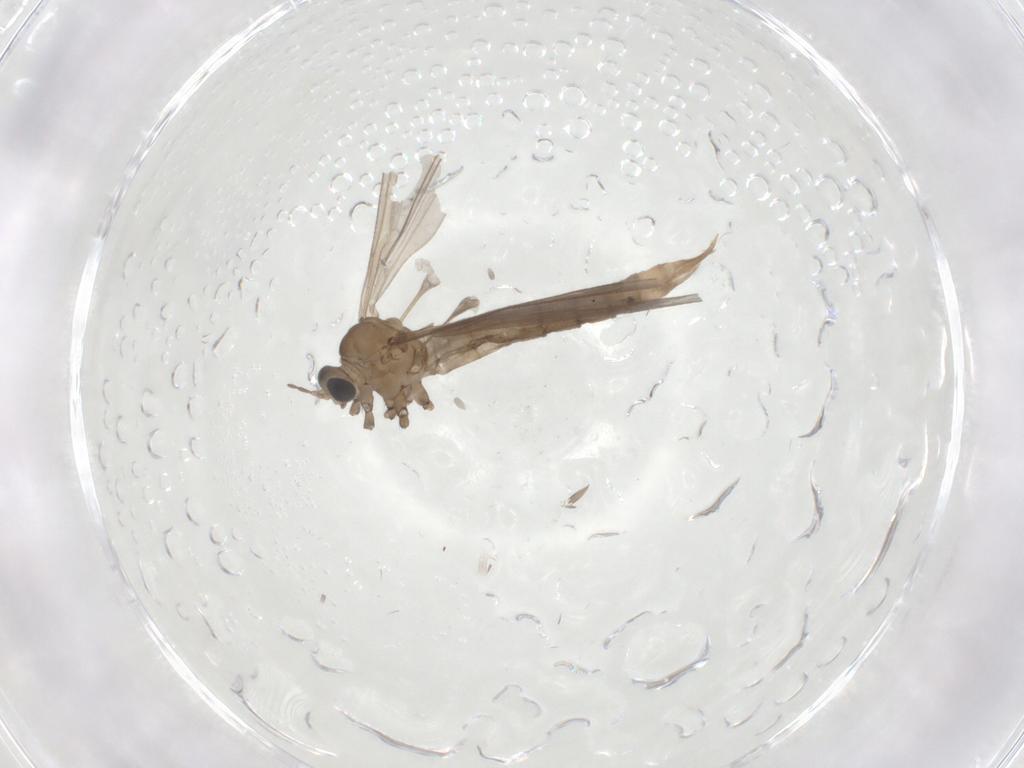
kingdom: Animalia
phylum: Arthropoda
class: Insecta
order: Diptera
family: Limoniidae
